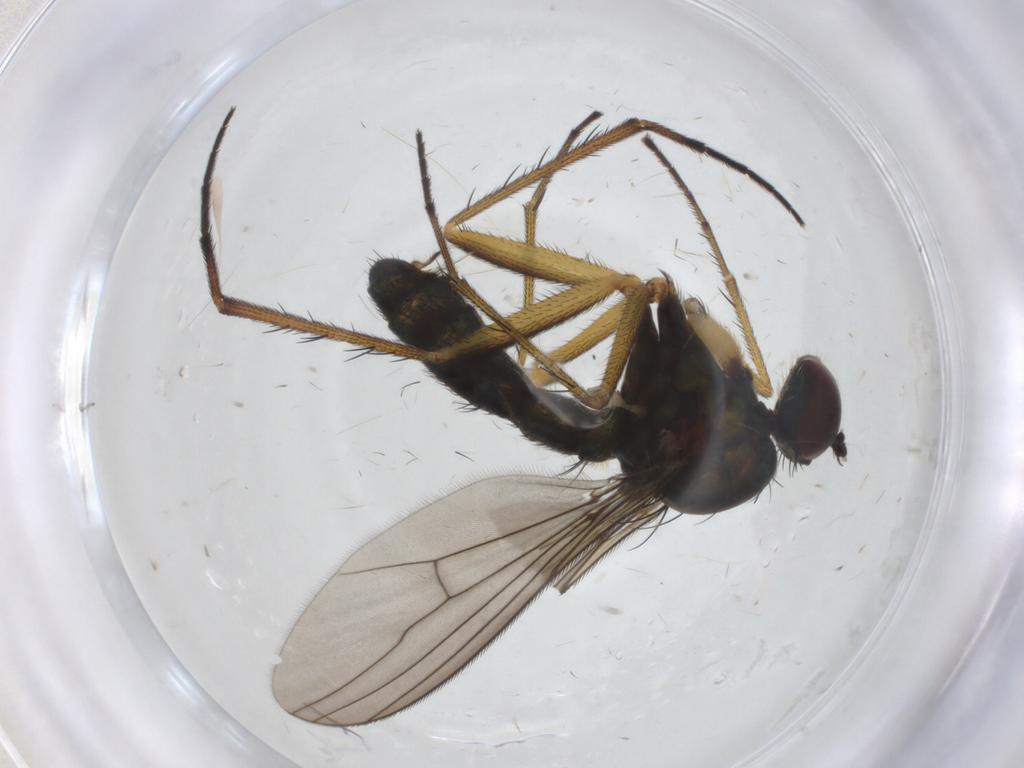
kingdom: Animalia
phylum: Arthropoda
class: Insecta
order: Diptera
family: Dolichopodidae
